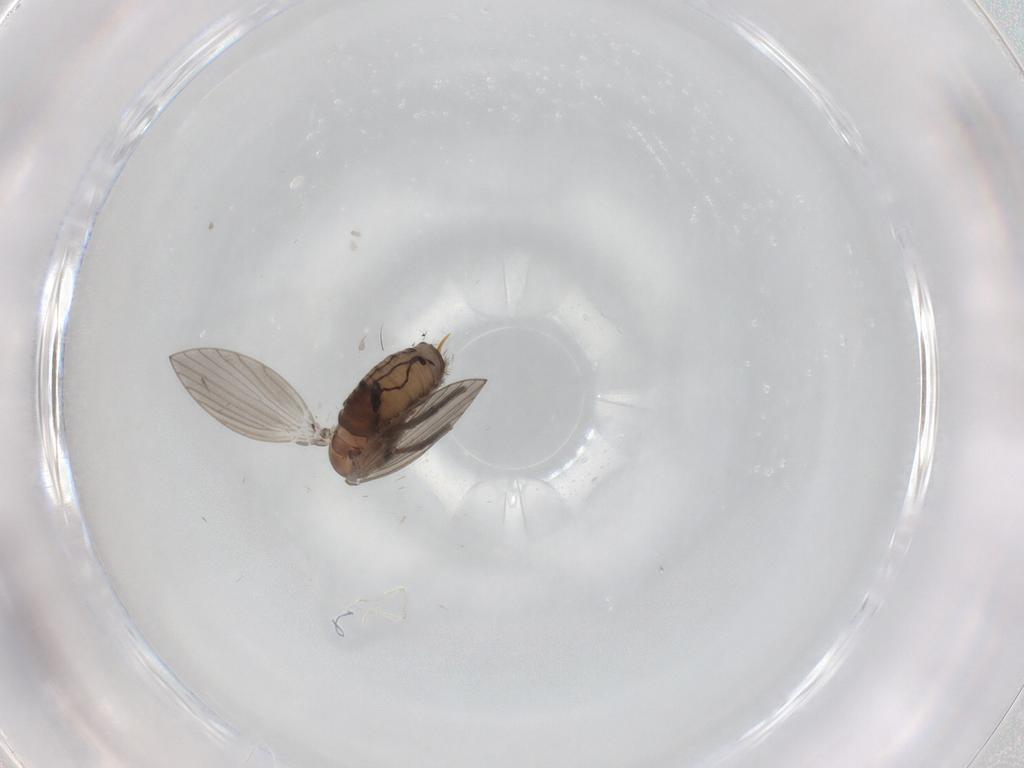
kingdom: Animalia
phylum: Arthropoda
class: Insecta
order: Diptera
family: Psychodidae
